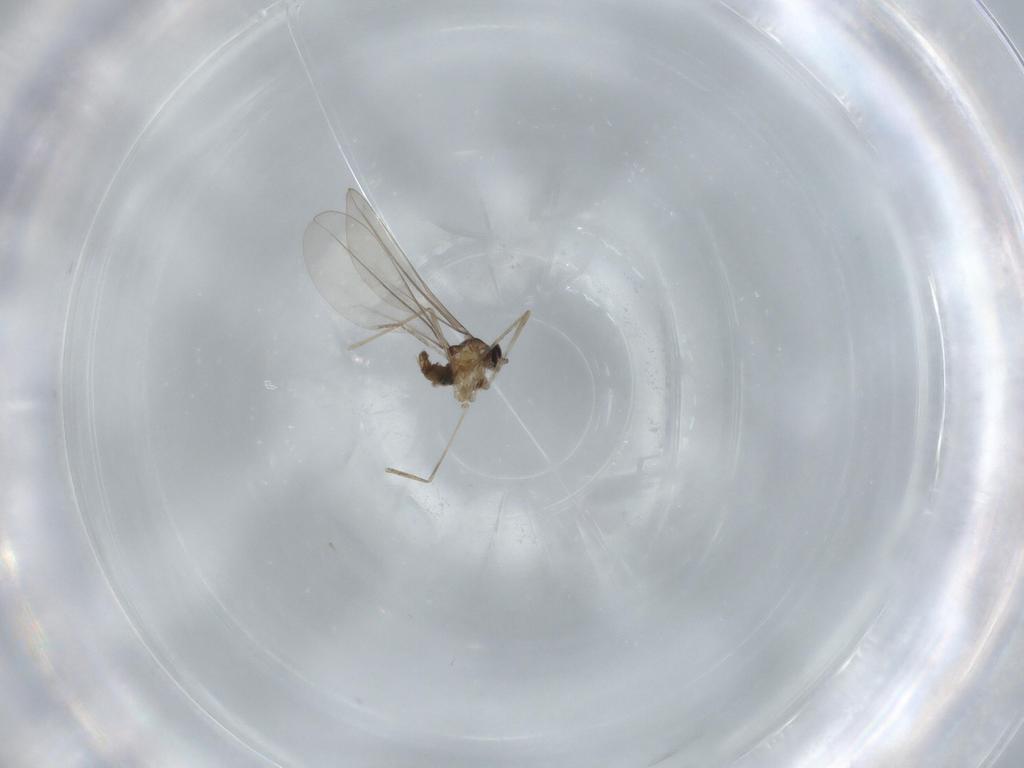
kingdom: Animalia
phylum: Arthropoda
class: Insecta
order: Diptera
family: Cecidomyiidae
